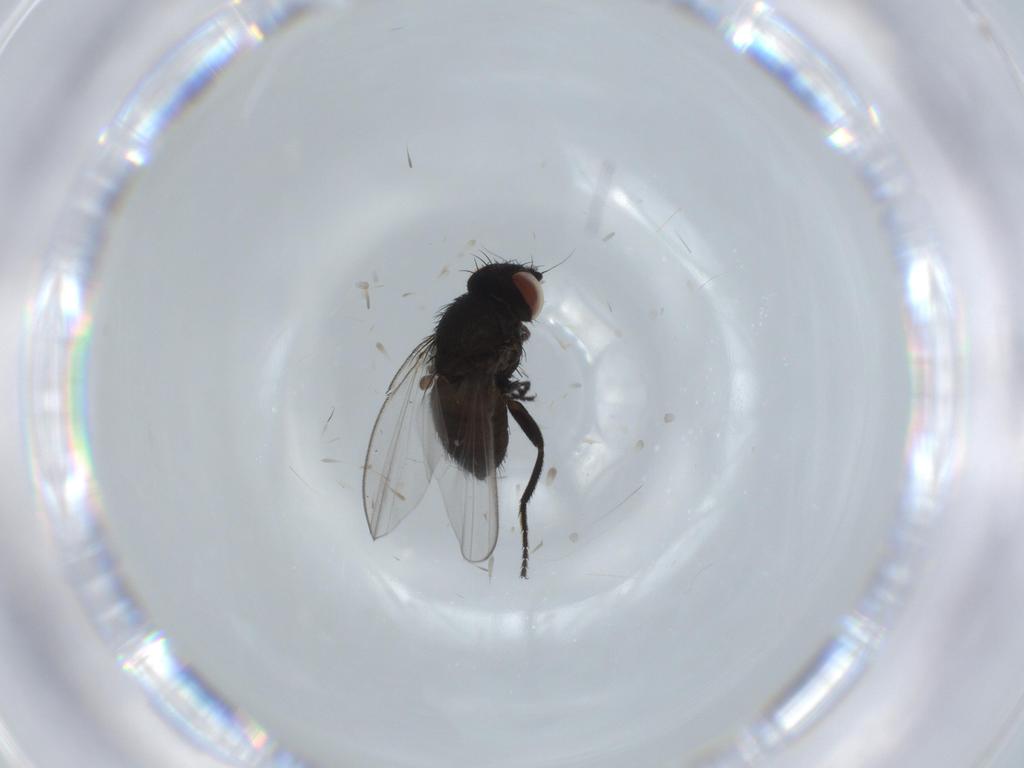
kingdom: Animalia
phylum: Arthropoda
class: Insecta
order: Diptera
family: Milichiidae
